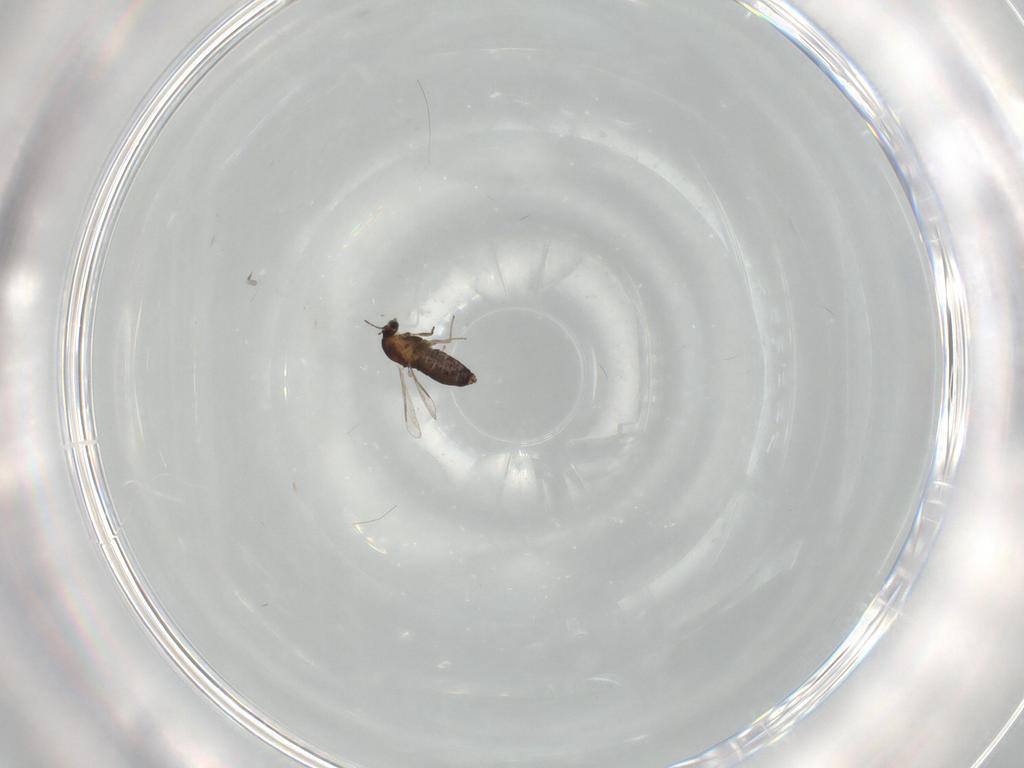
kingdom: Animalia
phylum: Arthropoda
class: Insecta
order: Diptera
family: Chironomidae
